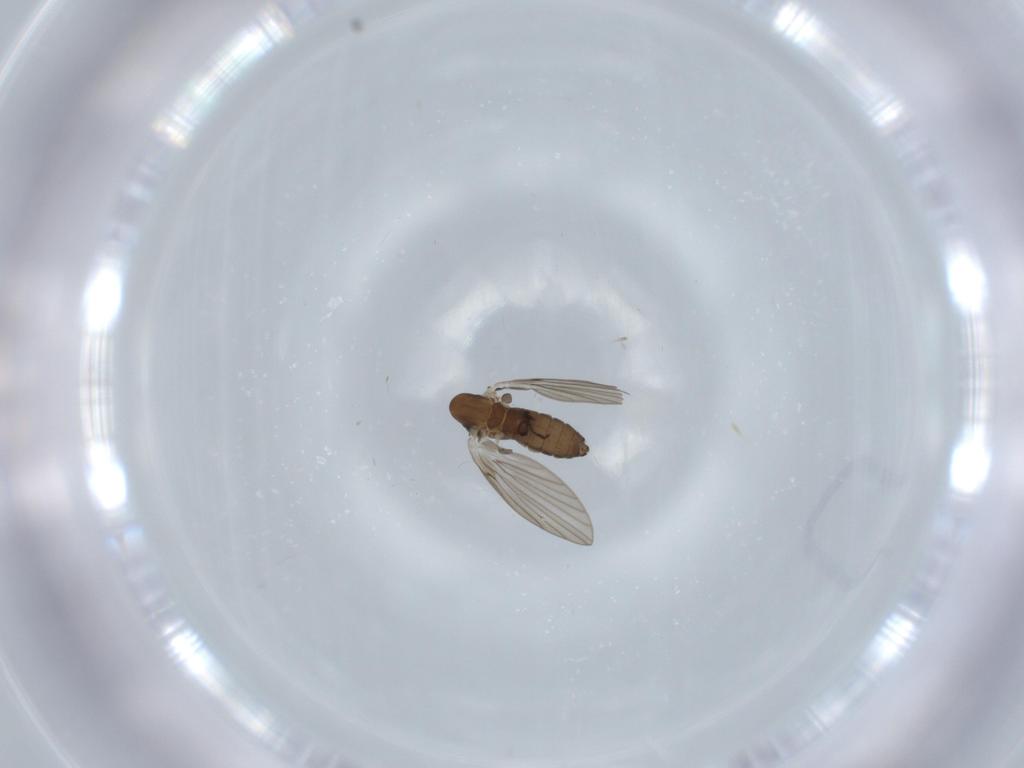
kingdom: Animalia
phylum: Arthropoda
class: Insecta
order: Diptera
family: Psychodidae
